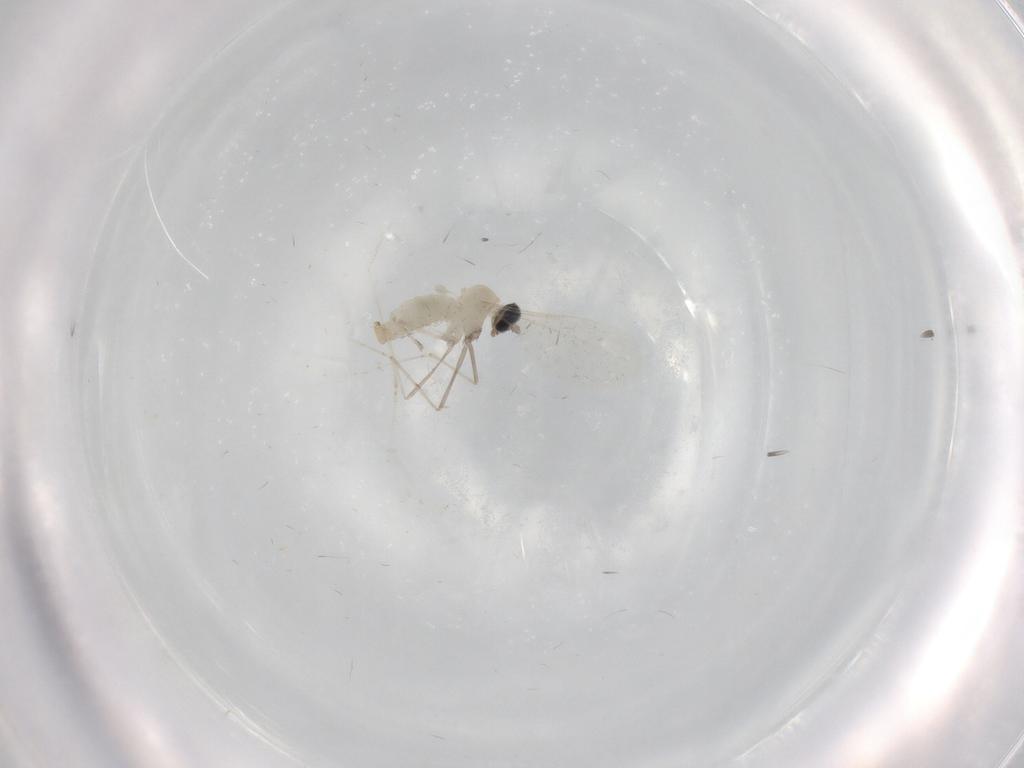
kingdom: Animalia
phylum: Arthropoda
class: Insecta
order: Diptera
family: Cecidomyiidae
